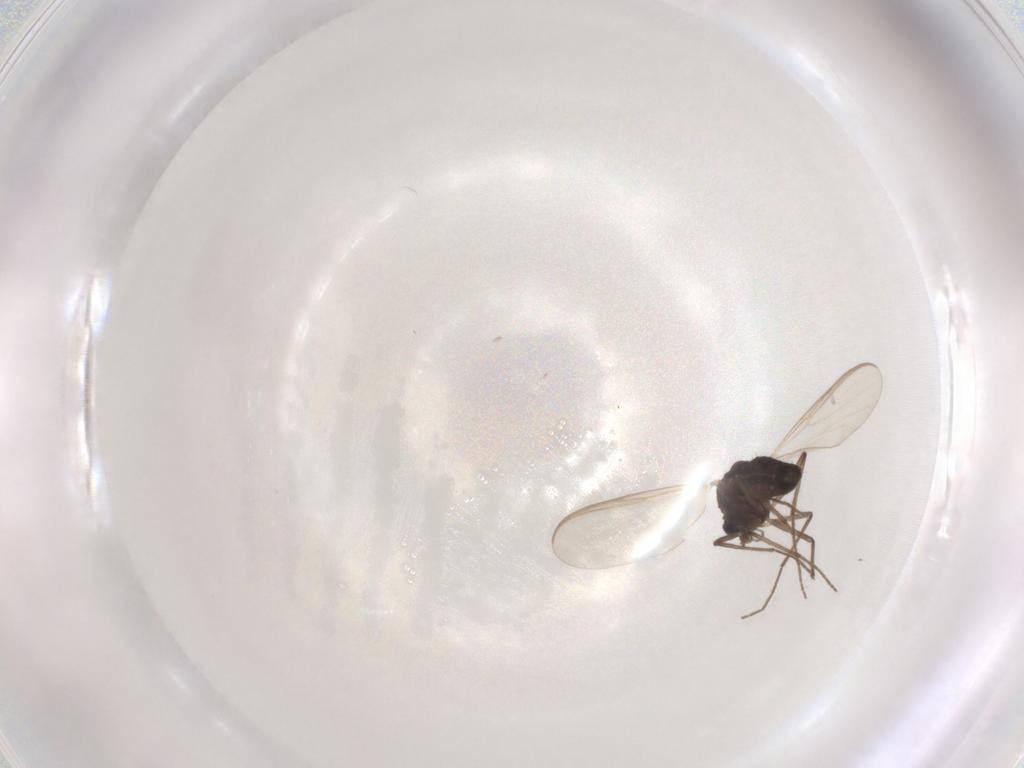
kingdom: Animalia
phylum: Arthropoda
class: Insecta
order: Diptera
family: Chironomidae
